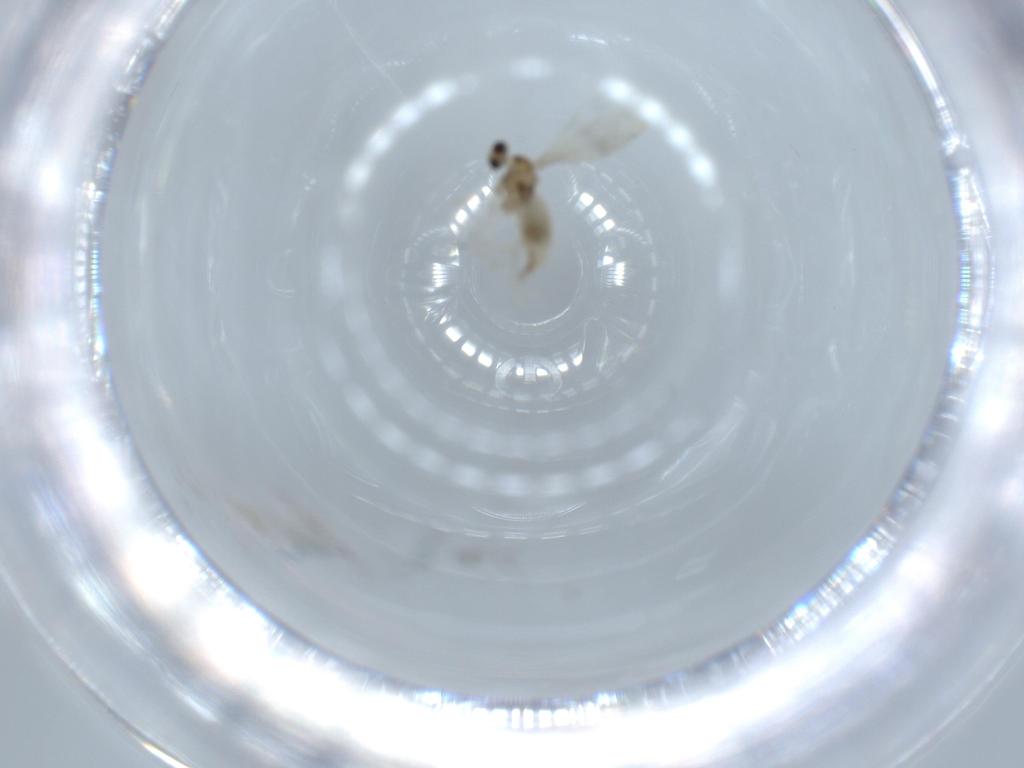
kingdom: Animalia
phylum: Arthropoda
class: Insecta
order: Diptera
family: Cecidomyiidae
